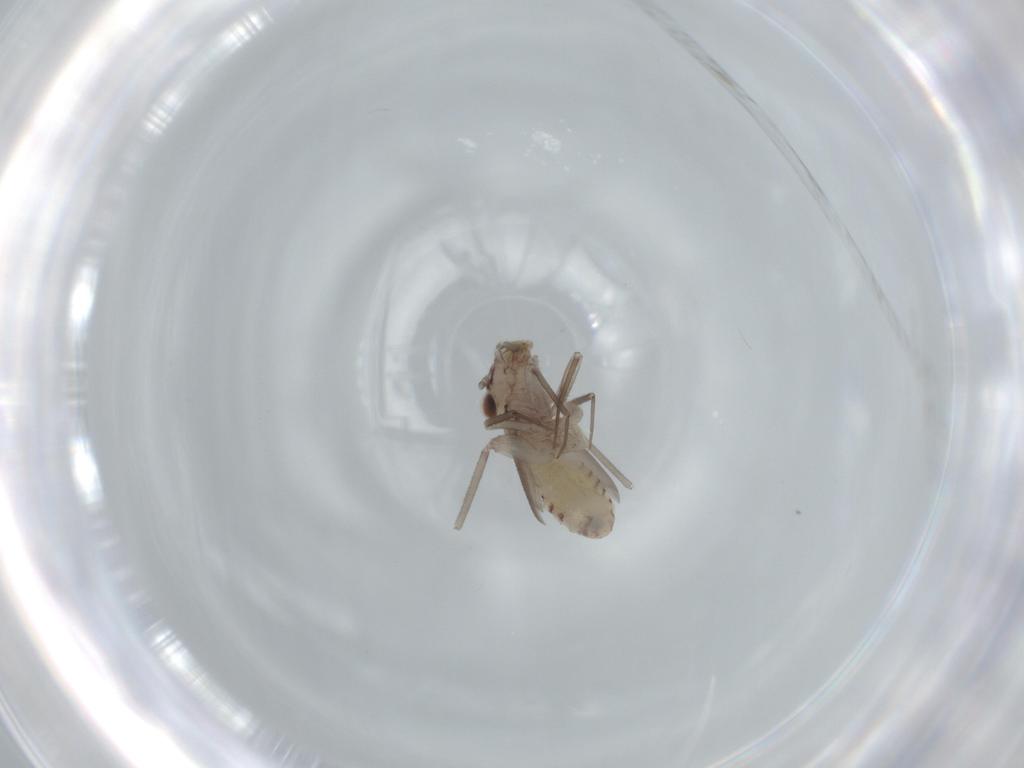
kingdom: Animalia
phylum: Arthropoda
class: Insecta
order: Psocodea
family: Lepidopsocidae
